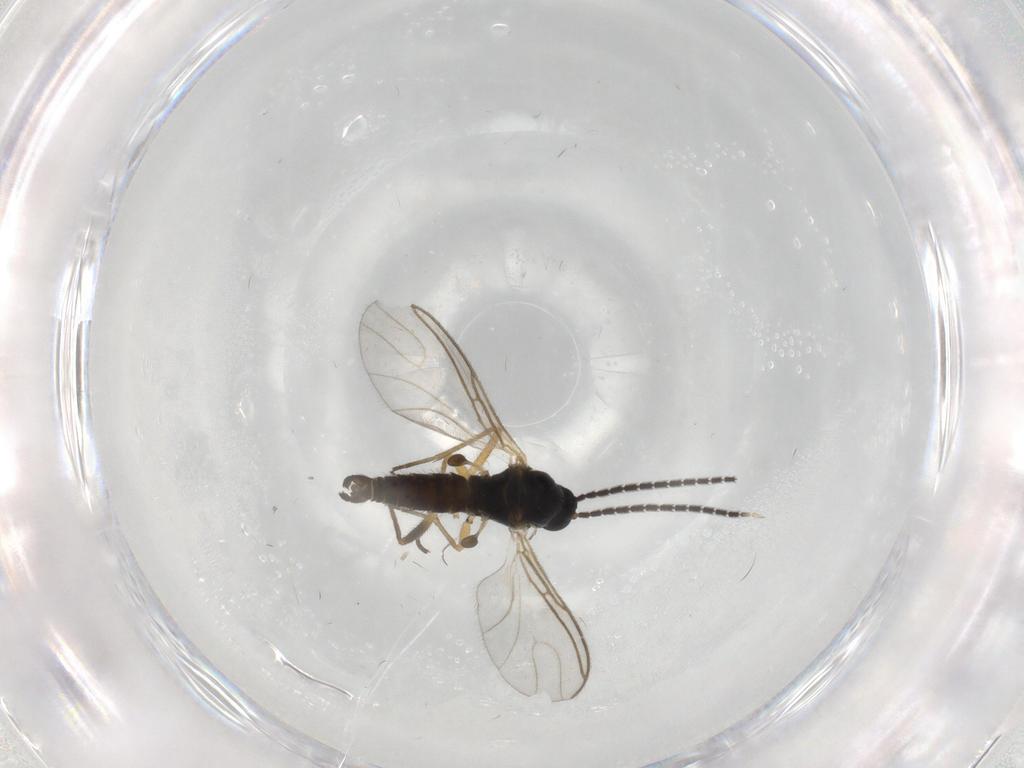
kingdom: Animalia
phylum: Arthropoda
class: Insecta
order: Diptera
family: Sciaridae
